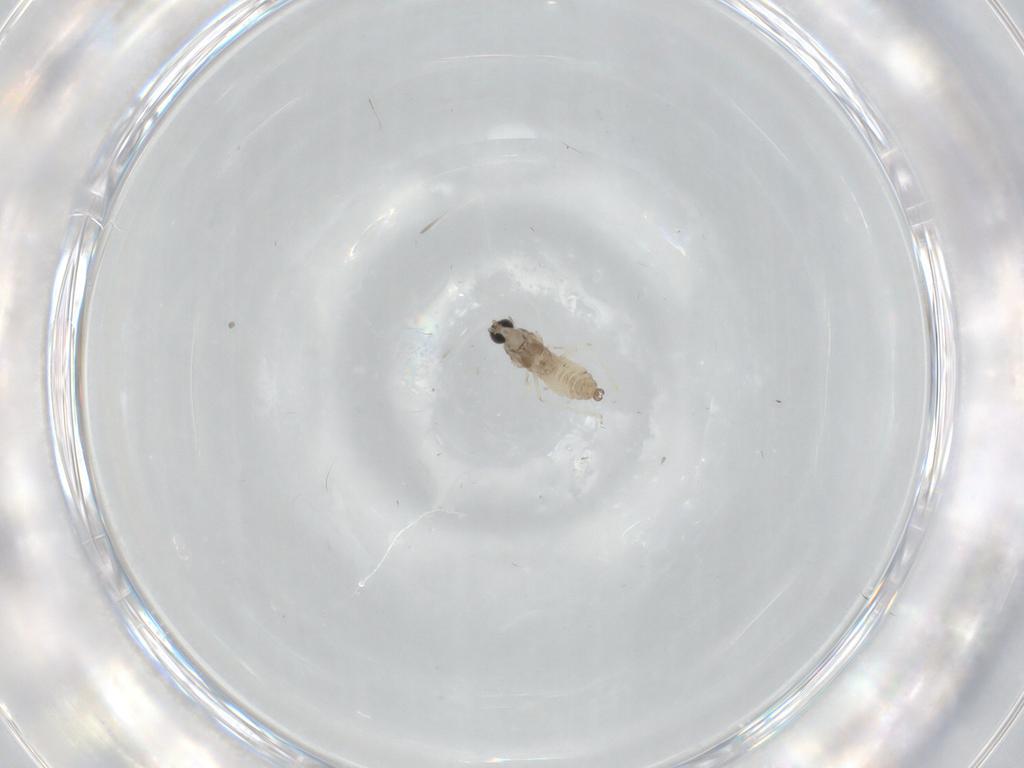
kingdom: Animalia
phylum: Arthropoda
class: Insecta
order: Diptera
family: Cecidomyiidae
